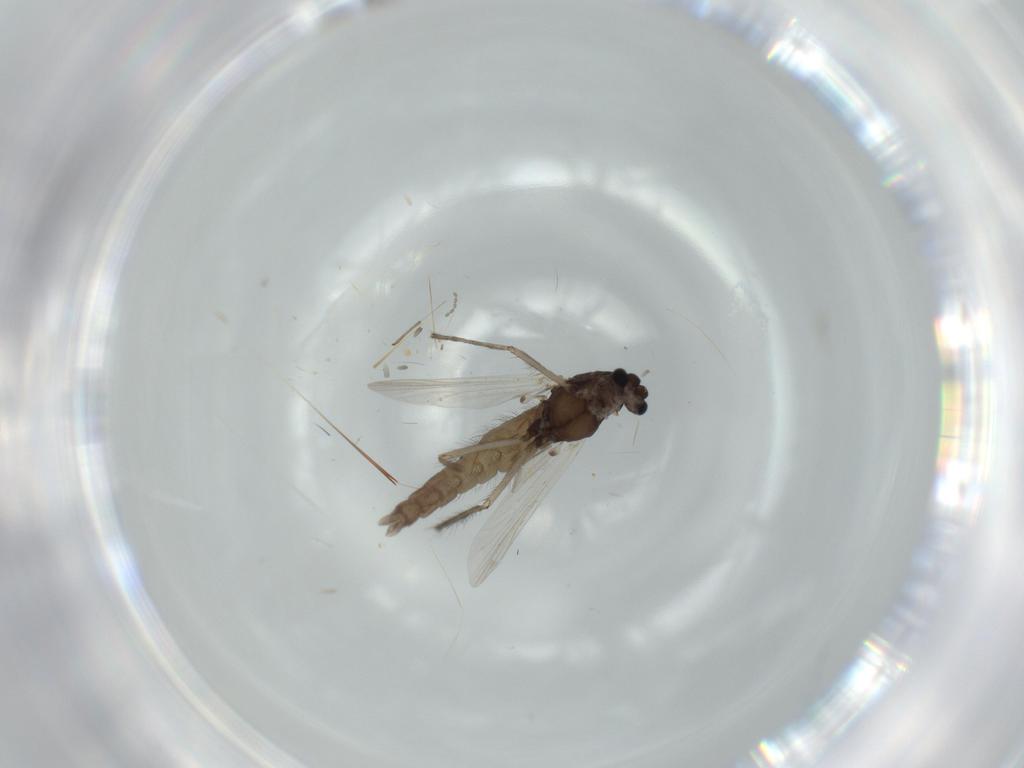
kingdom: Animalia
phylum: Arthropoda
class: Insecta
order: Diptera
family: Chironomidae
